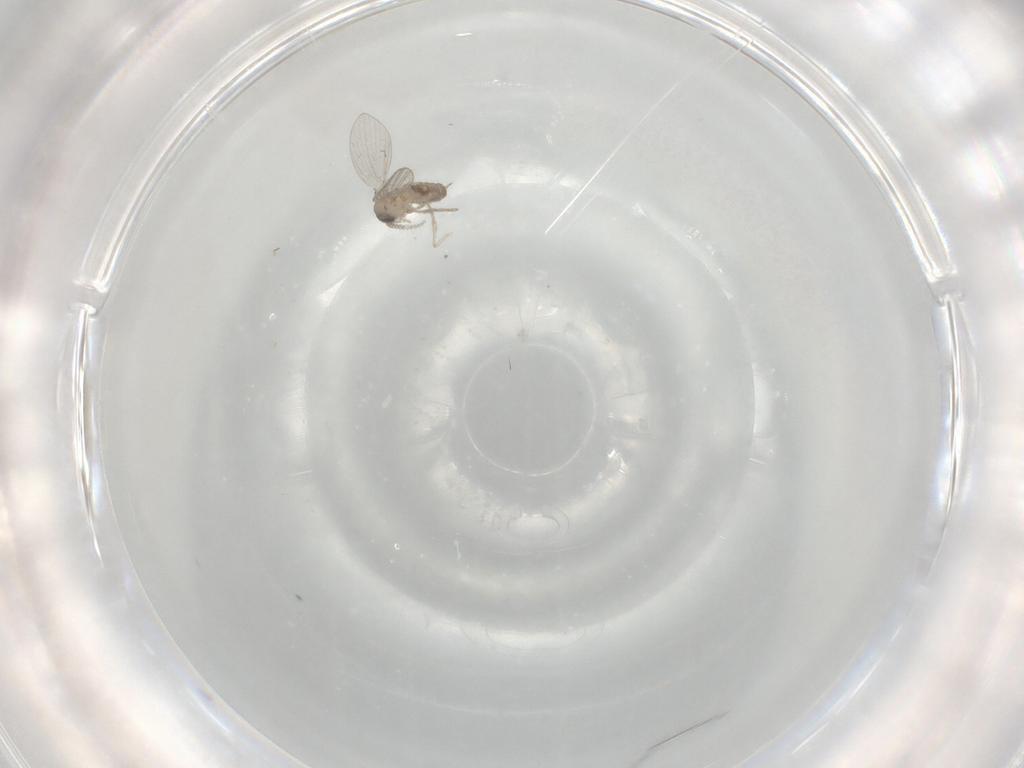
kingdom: Animalia
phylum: Arthropoda
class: Insecta
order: Diptera
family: Psychodidae
